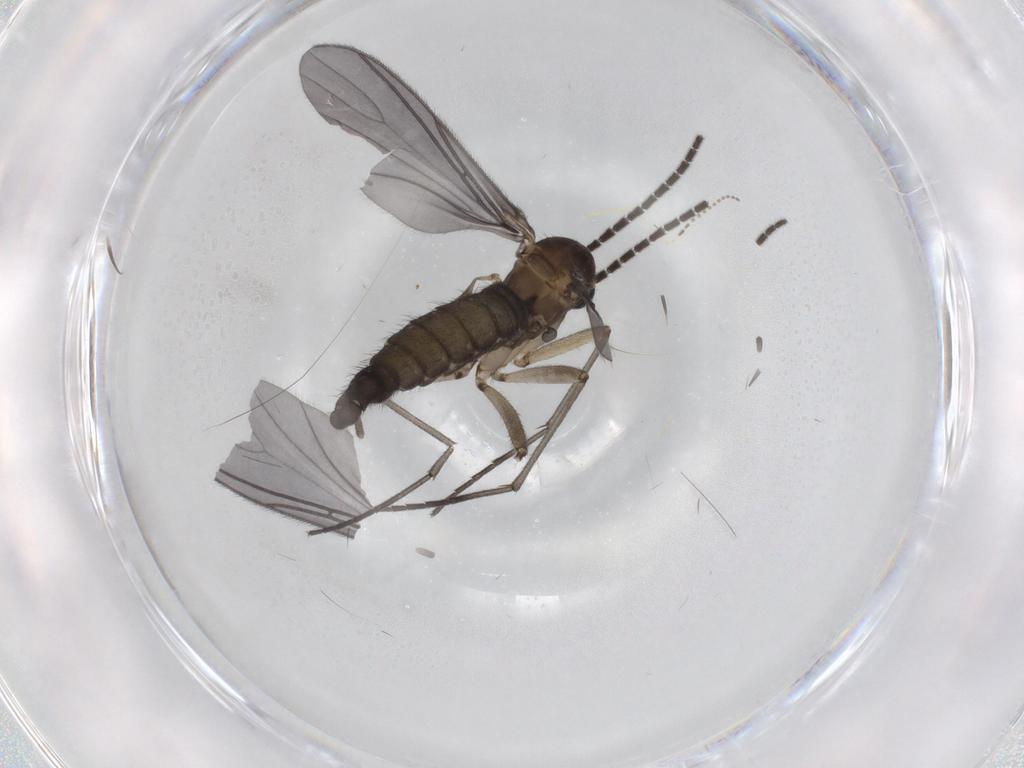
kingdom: Animalia
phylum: Arthropoda
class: Insecta
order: Diptera
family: Sciaridae
